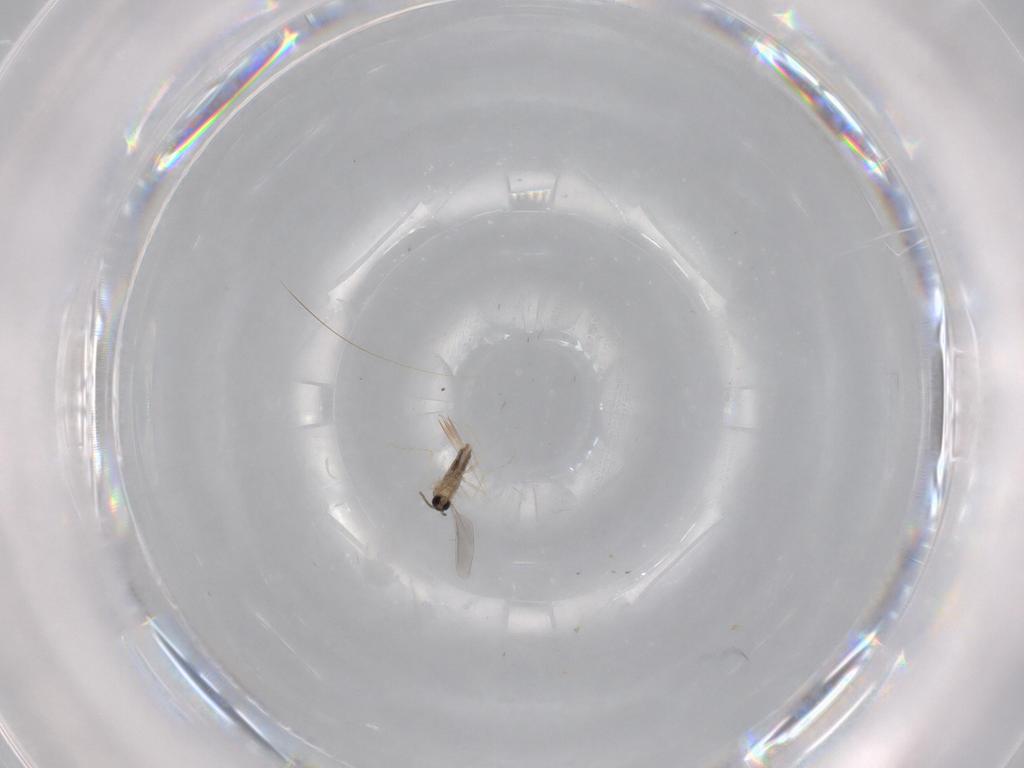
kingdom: Animalia
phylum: Arthropoda
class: Insecta
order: Diptera
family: Tabanidae
